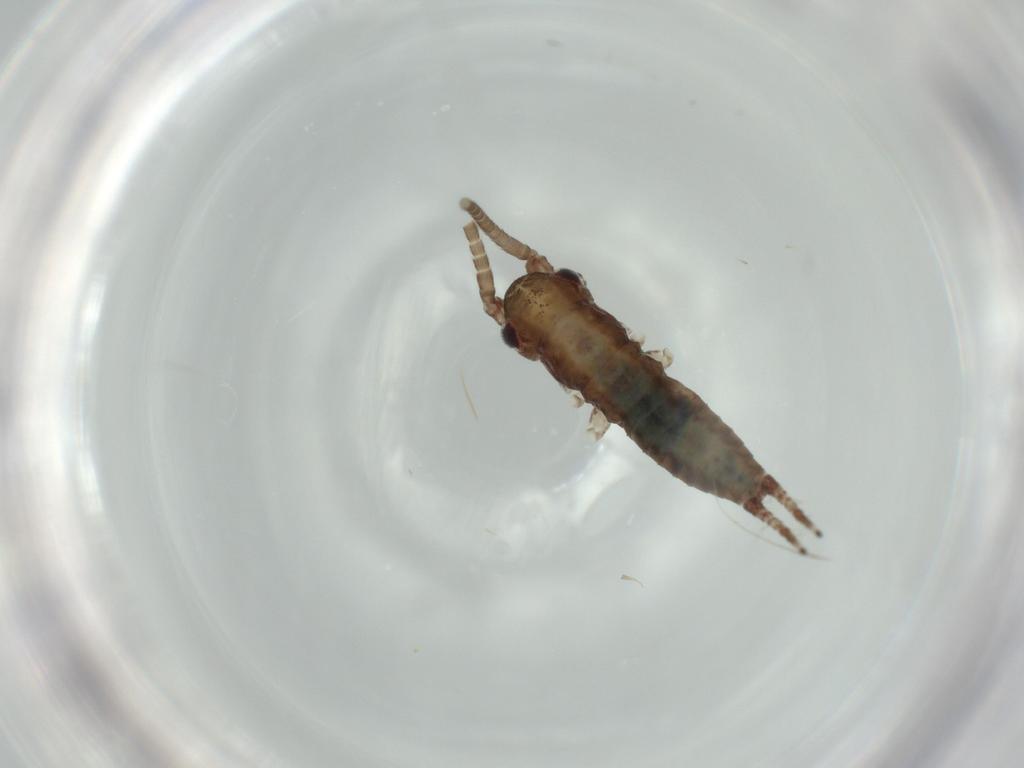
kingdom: Animalia
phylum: Arthropoda
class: Insecta
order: Orthoptera
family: Gryllidae
